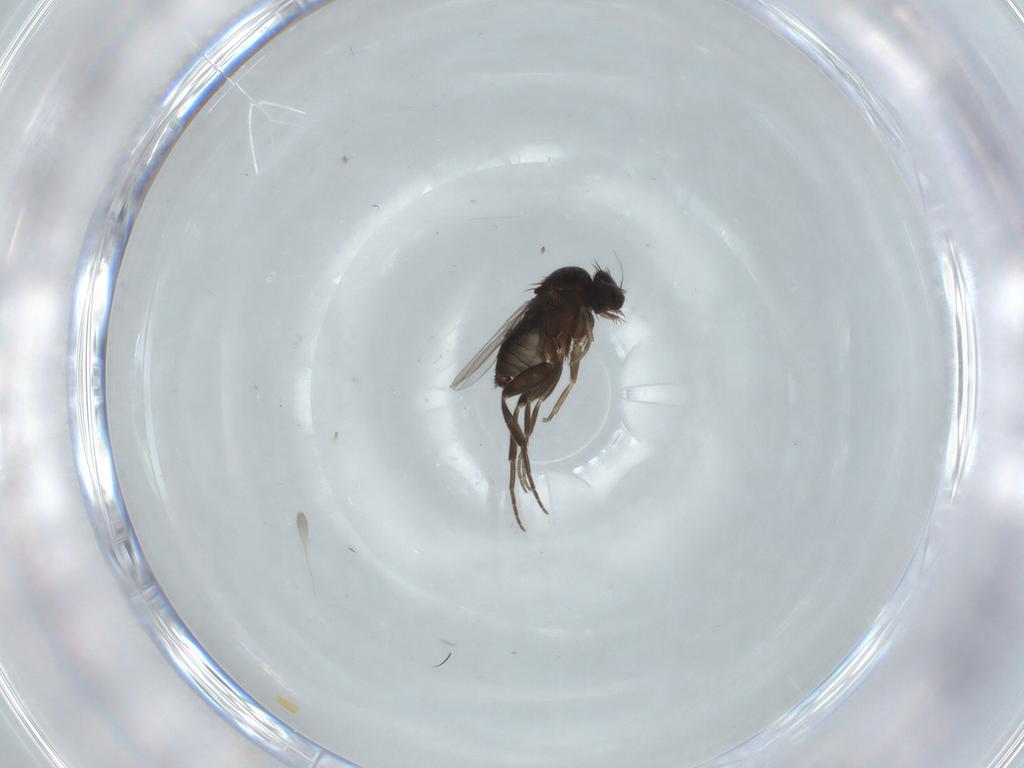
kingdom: Animalia
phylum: Arthropoda
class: Insecta
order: Diptera
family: Phoridae
